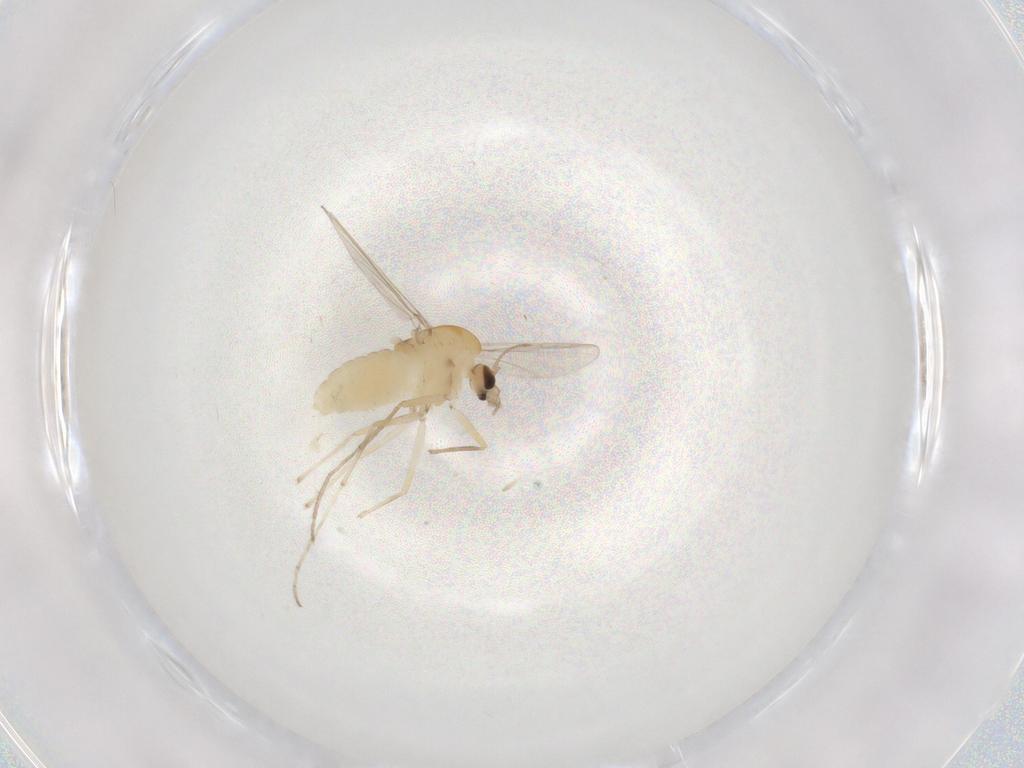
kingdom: Animalia
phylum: Arthropoda
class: Insecta
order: Diptera
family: Chironomidae
